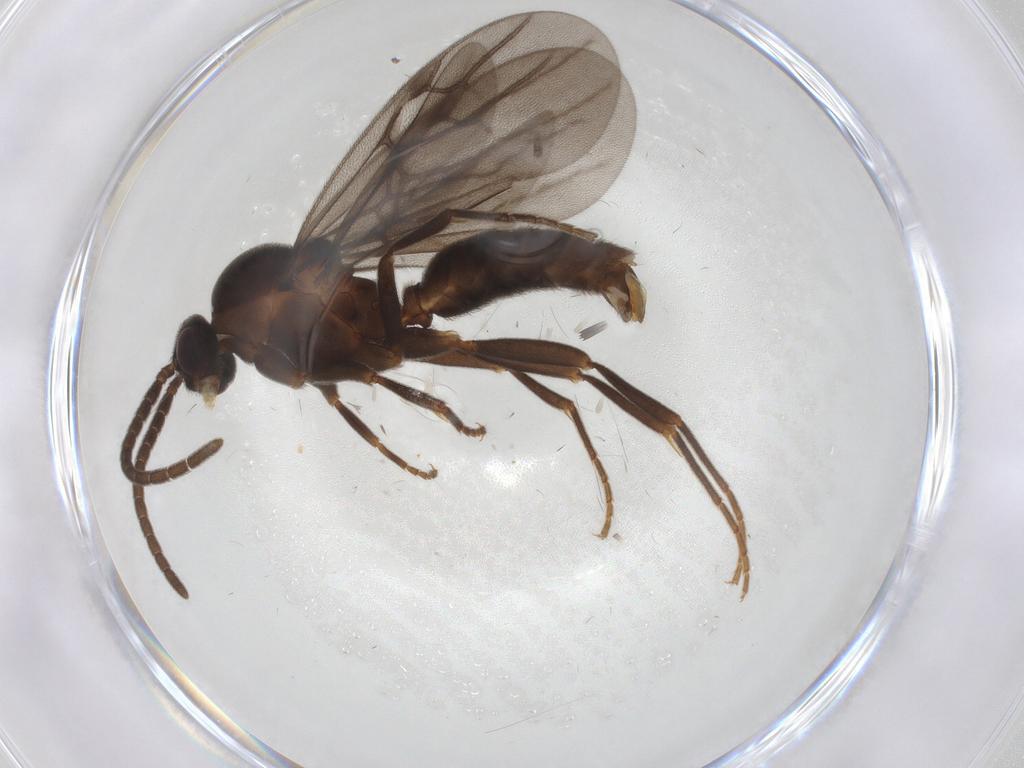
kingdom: Animalia
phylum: Arthropoda
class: Insecta
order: Hymenoptera
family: Formicidae
